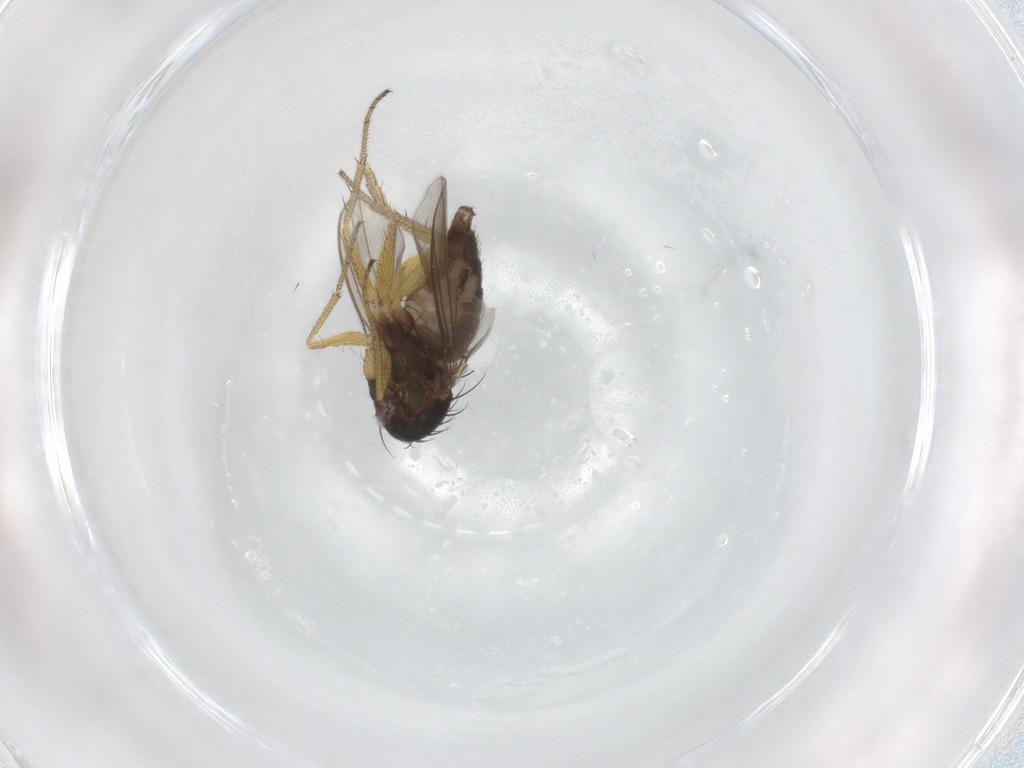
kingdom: Animalia
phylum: Arthropoda
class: Insecta
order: Diptera
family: Dolichopodidae
